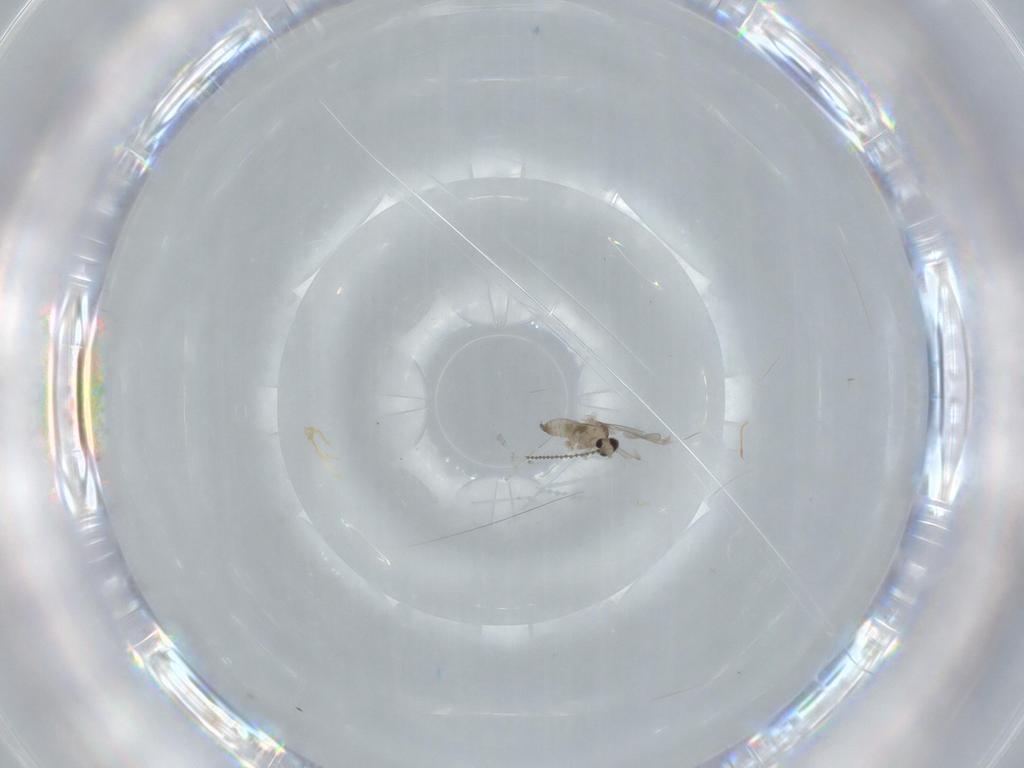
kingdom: Animalia
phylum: Arthropoda
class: Insecta
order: Diptera
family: Cecidomyiidae
